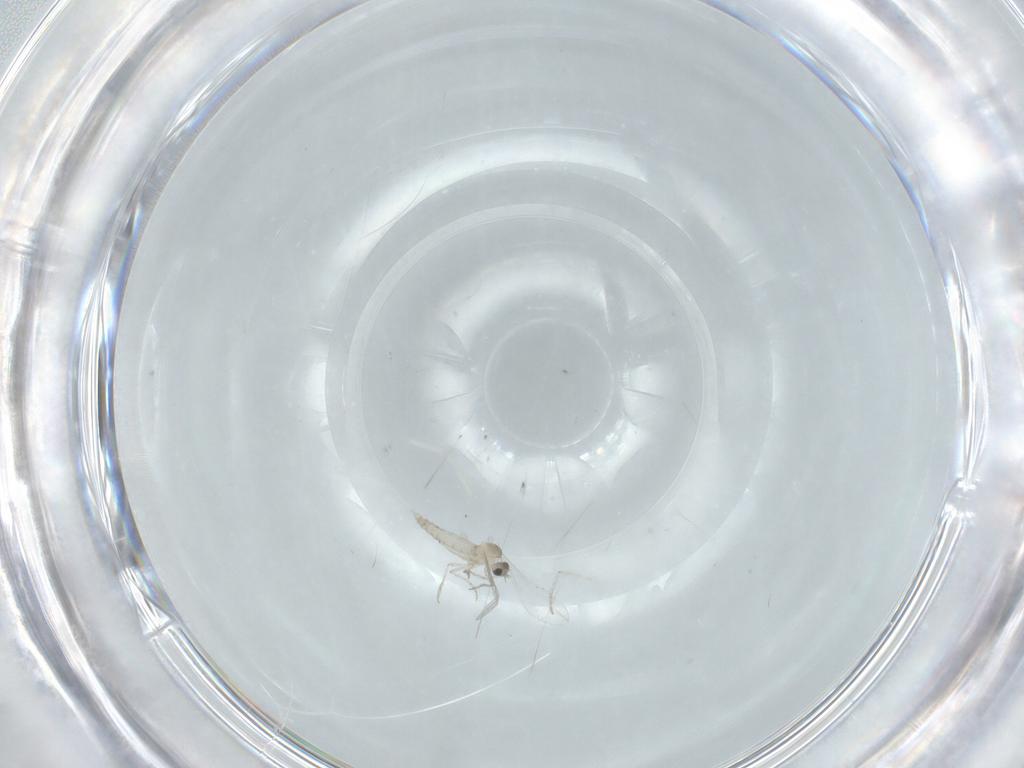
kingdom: Animalia
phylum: Arthropoda
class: Insecta
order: Diptera
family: Cecidomyiidae
